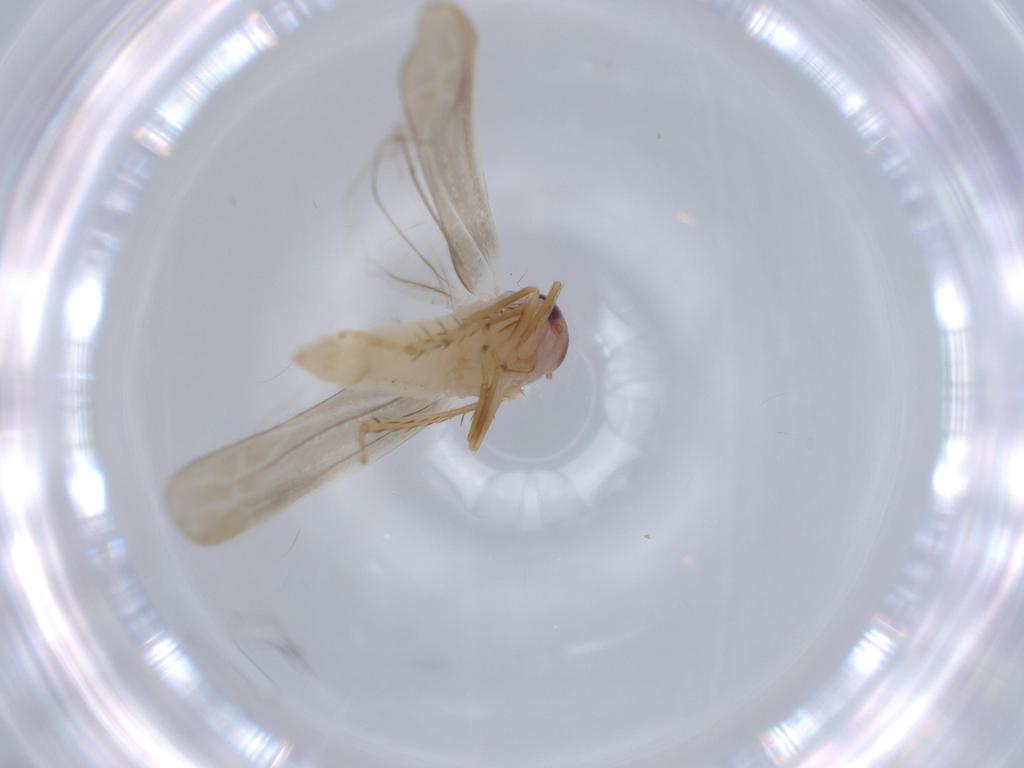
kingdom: Animalia
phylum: Arthropoda
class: Insecta
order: Hemiptera
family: Cicadellidae
